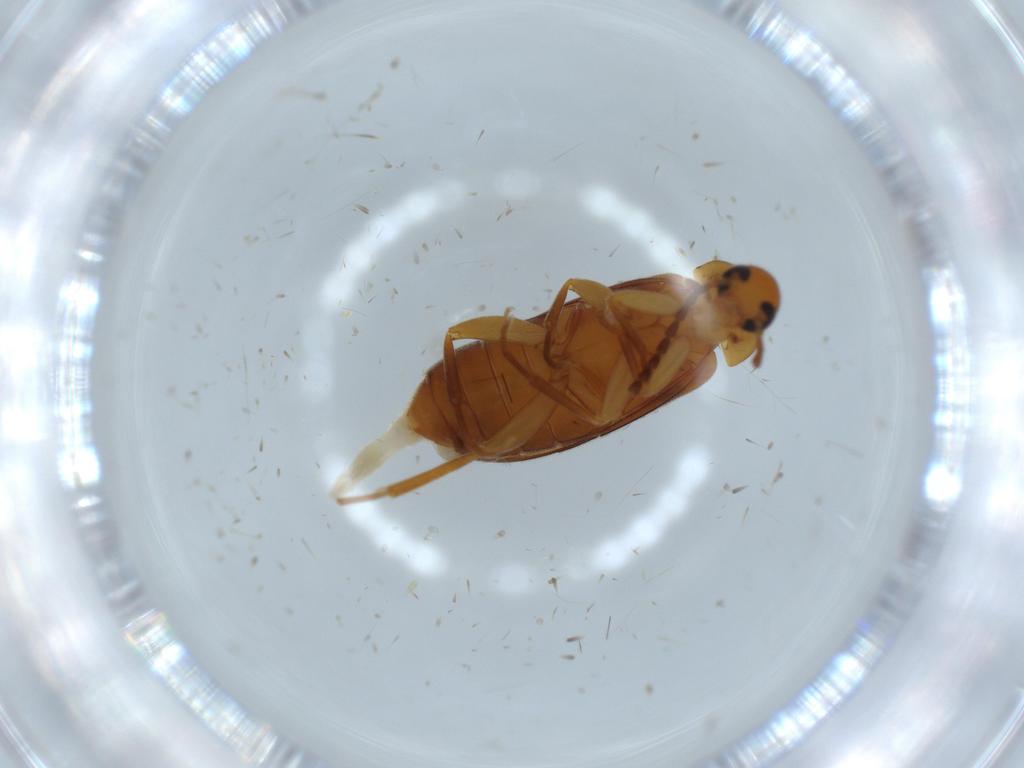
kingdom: Animalia
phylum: Arthropoda
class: Insecta
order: Coleoptera
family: Scraptiidae
